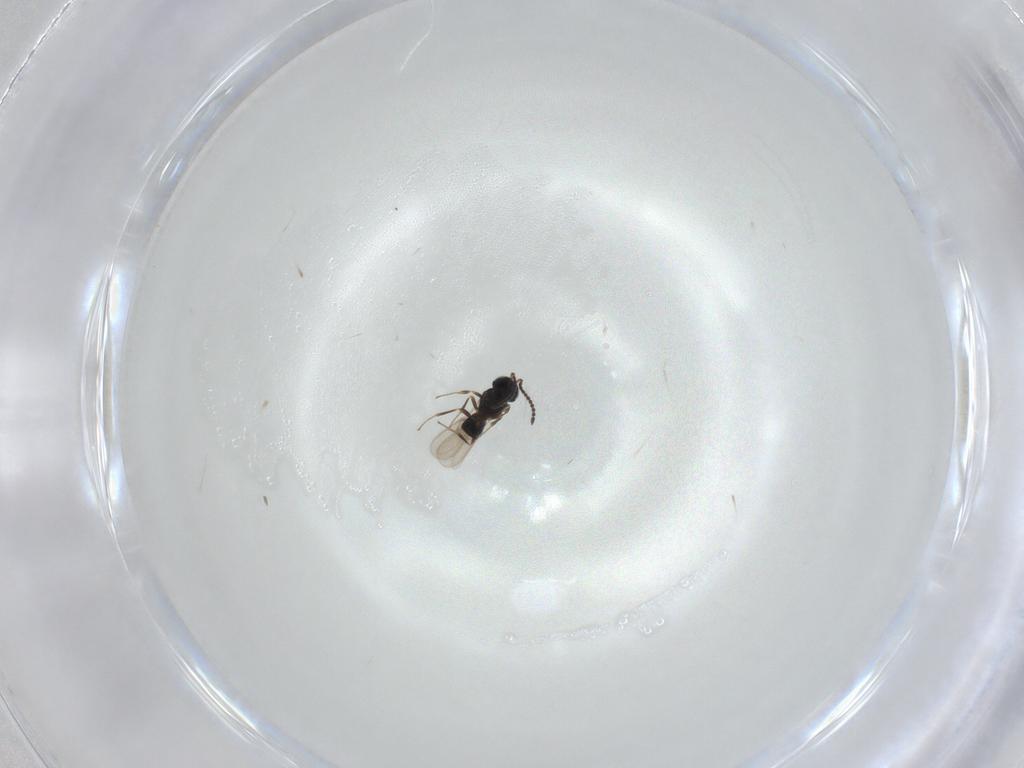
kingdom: Animalia
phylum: Arthropoda
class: Insecta
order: Hymenoptera
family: Scelionidae
